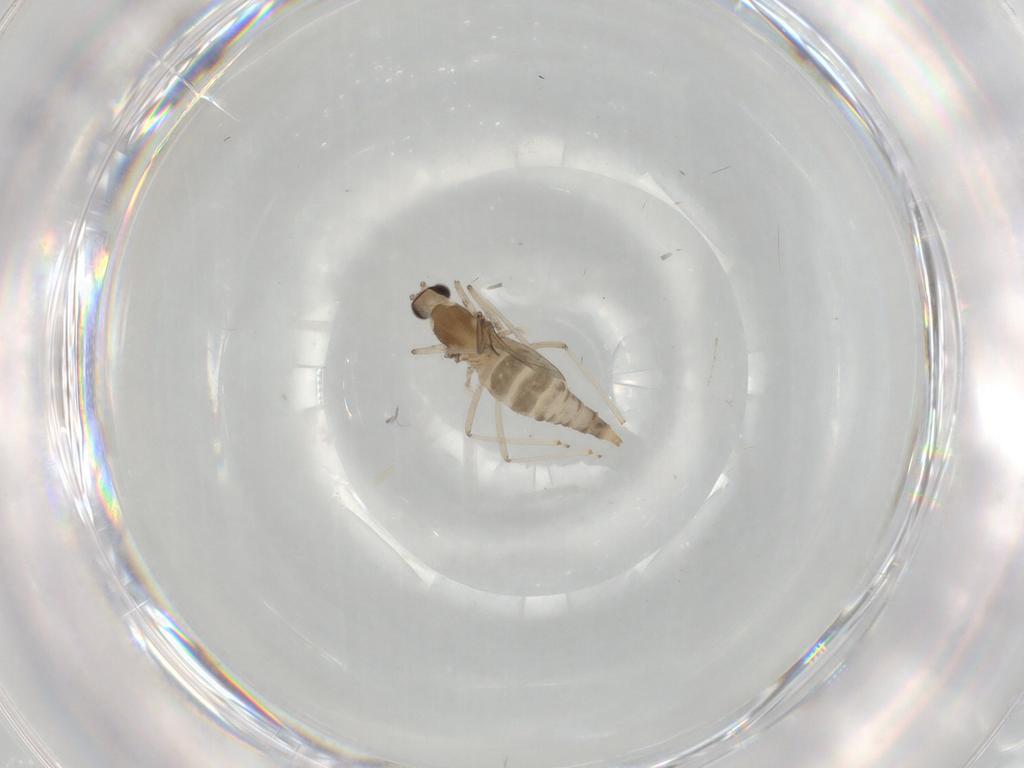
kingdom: Animalia
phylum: Arthropoda
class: Insecta
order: Diptera
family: Cecidomyiidae
